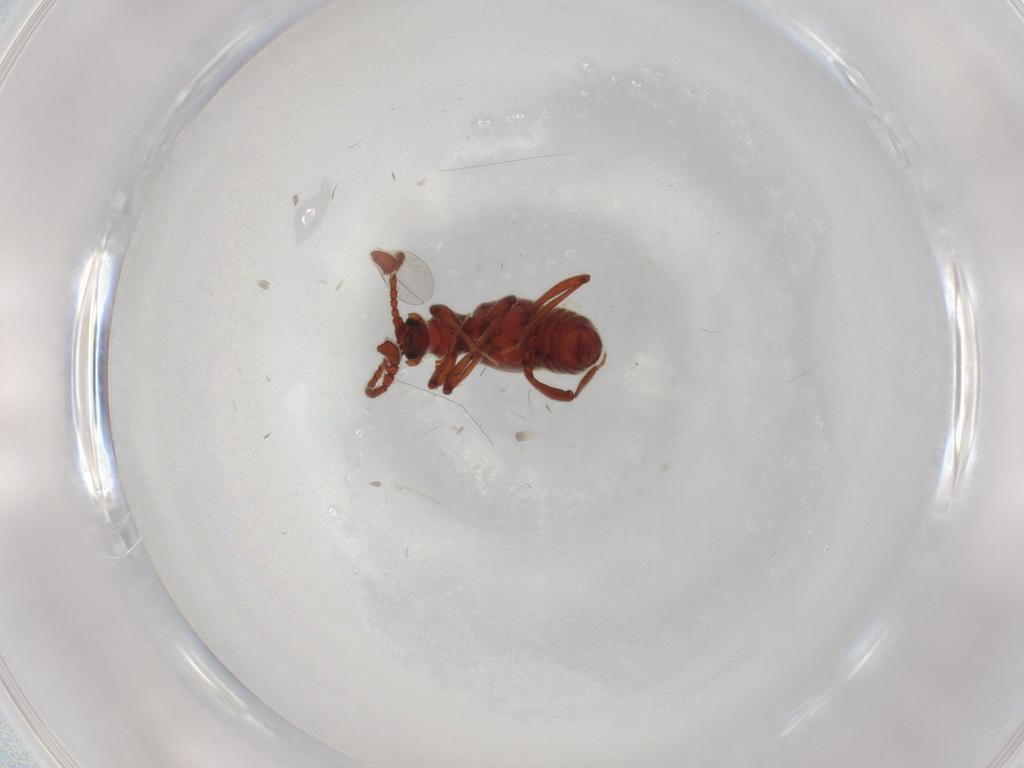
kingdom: Animalia
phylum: Arthropoda
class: Insecta
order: Coleoptera
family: Staphylinidae
